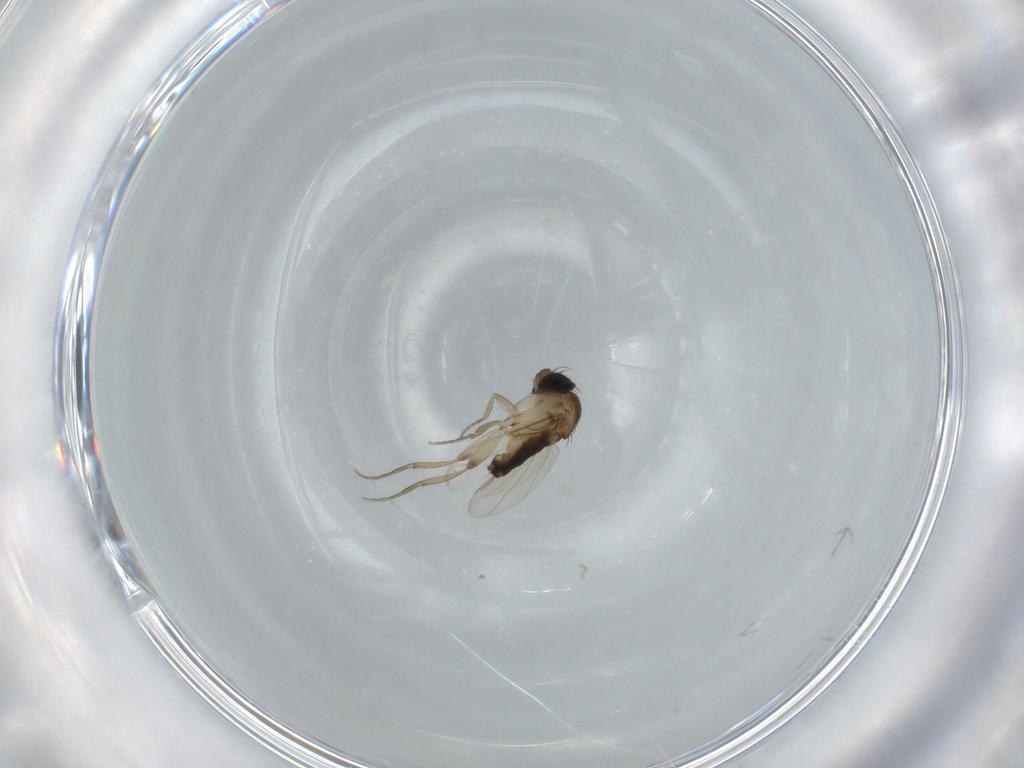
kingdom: Animalia
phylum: Arthropoda
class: Insecta
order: Diptera
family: Phoridae
